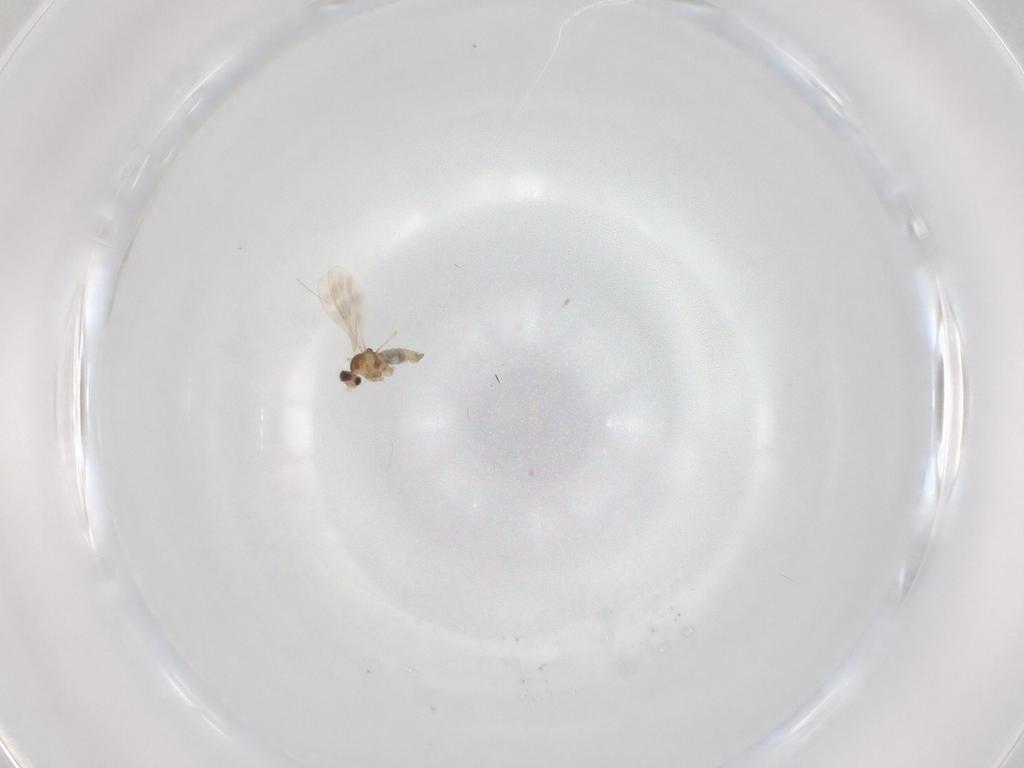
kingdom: Animalia
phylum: Arthropoda
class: Insecta
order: Diptera
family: Cecidomyiidae
